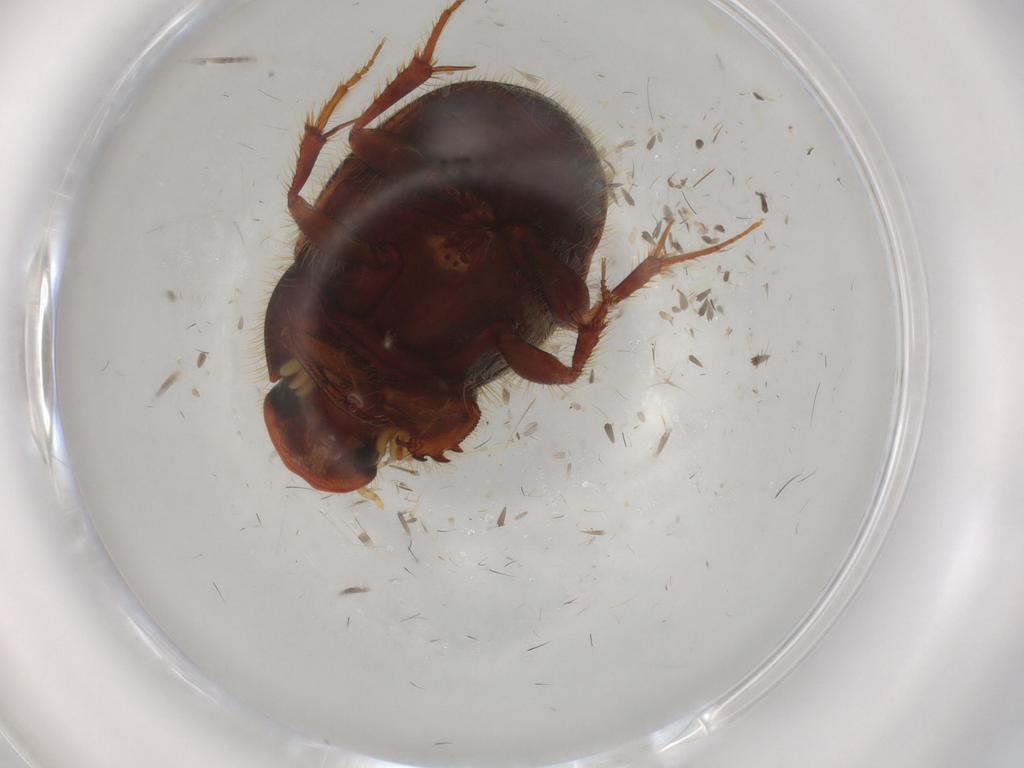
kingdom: Animalia
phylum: Arthropoda
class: Insecta
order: Coleoptera
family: Scarabaeidae
